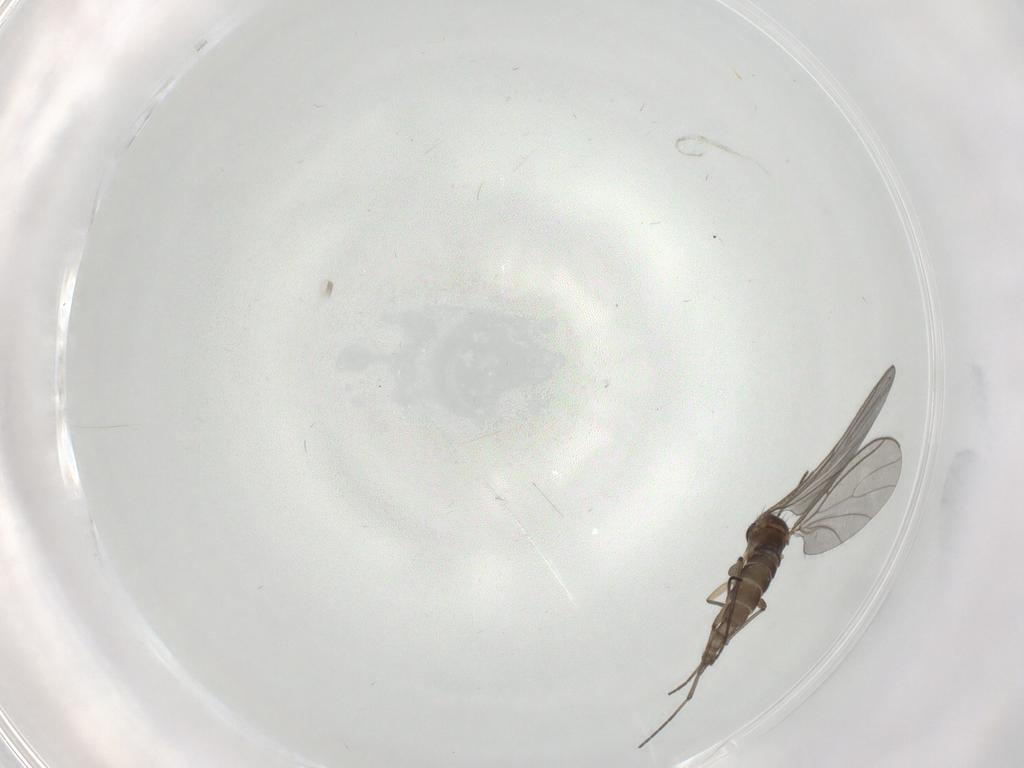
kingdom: Animalia
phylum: Arthropoda
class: Insecta
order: Diptera
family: Sciaridae
